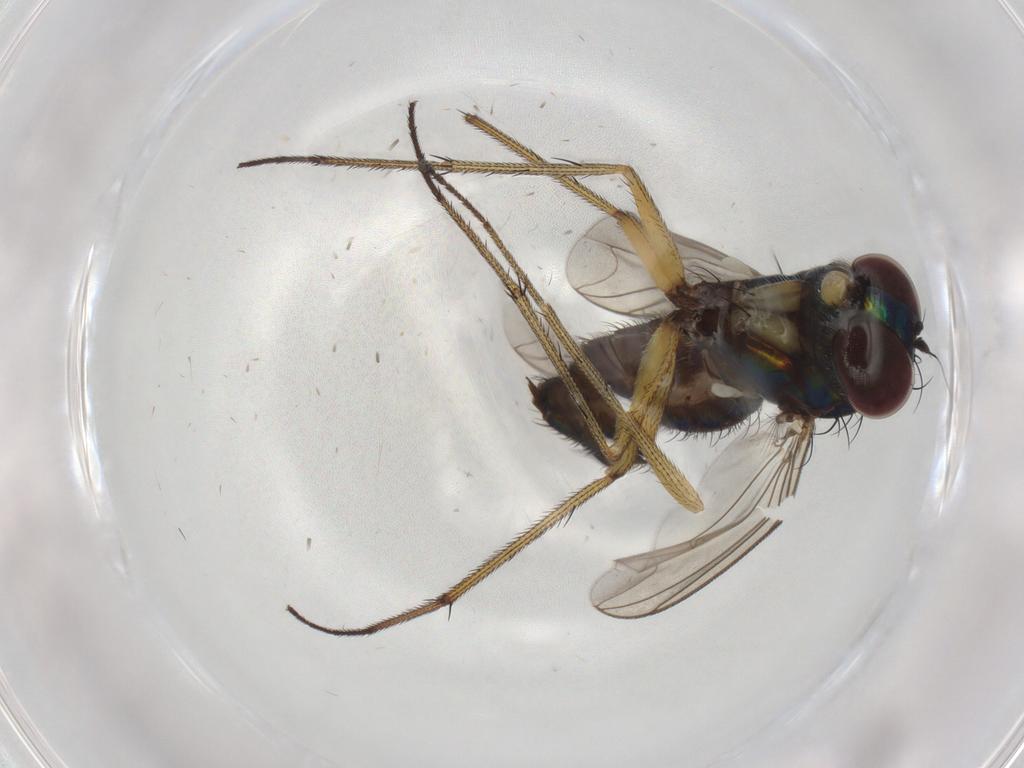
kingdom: Animalia
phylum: Arthropoda
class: Insecta
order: Diptera
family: Dolichopodidae
